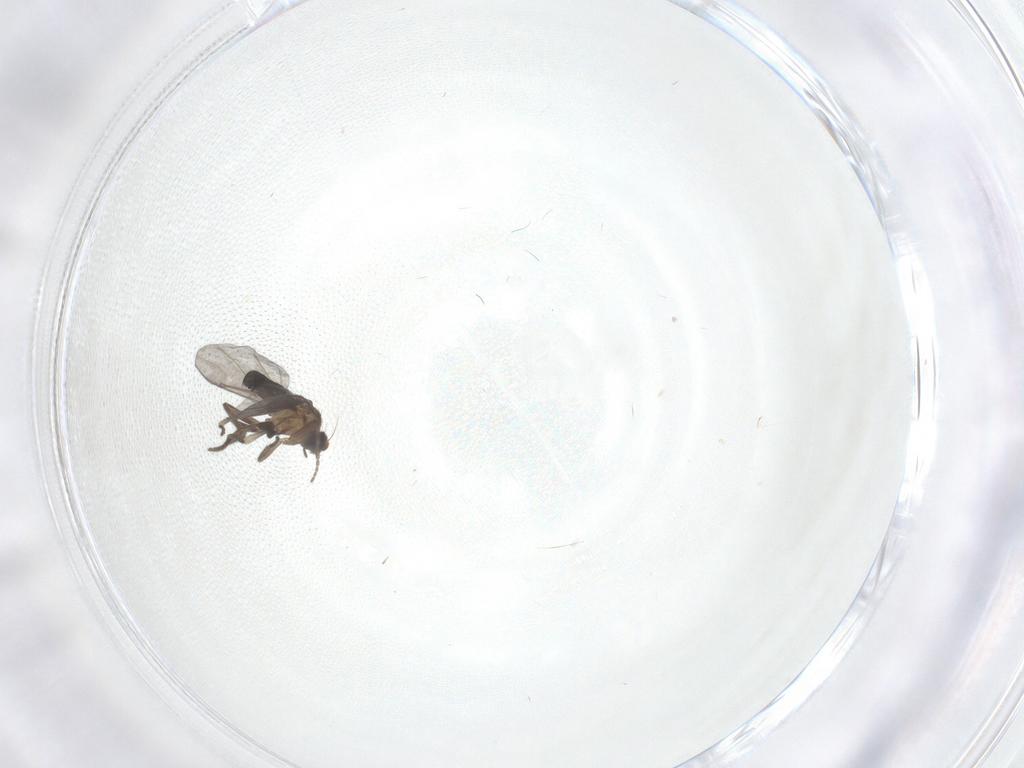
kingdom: Animalia
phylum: Arthropoda
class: Insecta
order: Diptera
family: Phoridae
